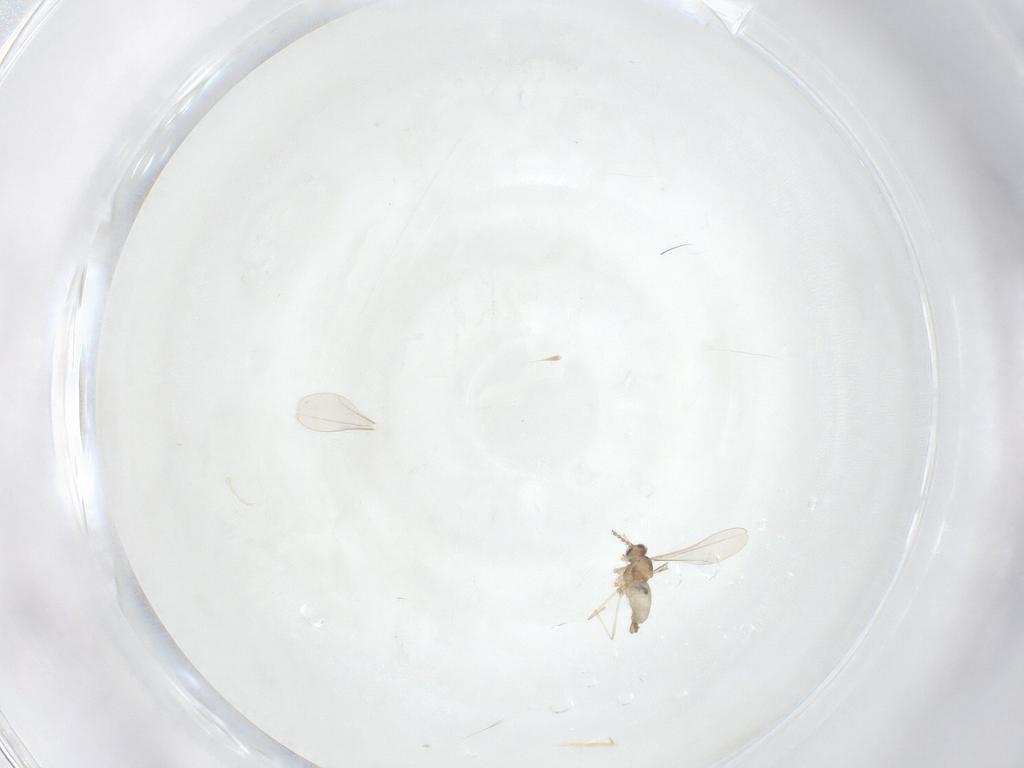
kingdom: Animalia
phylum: Arthropoda
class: Insecta
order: Diptera
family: Cecidomyiidae
